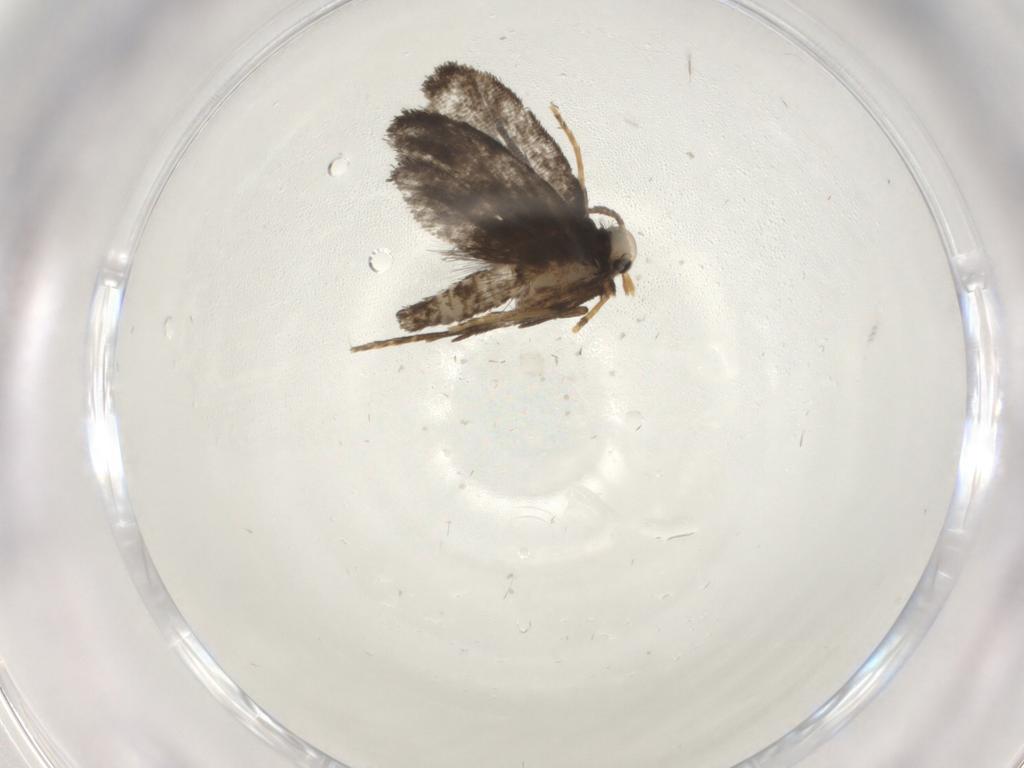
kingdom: Animalia
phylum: Arthropoda
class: Insecta
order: Lepidoptera
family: Psychidae
